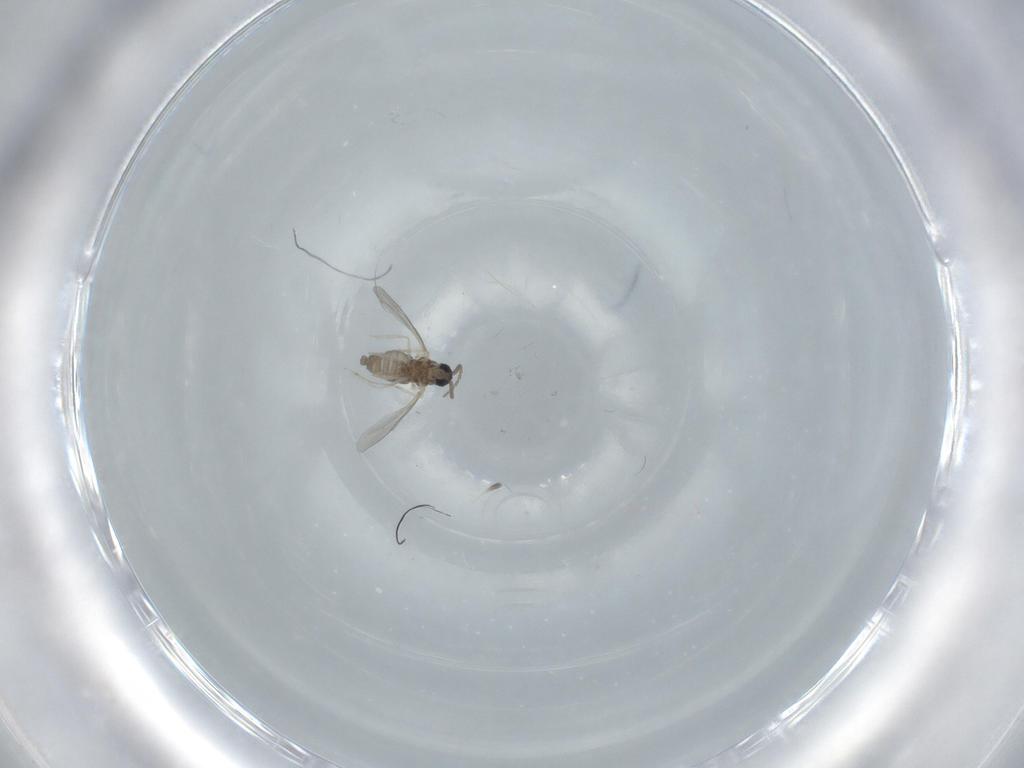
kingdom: Animalia
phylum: Arthropoda
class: Insecta
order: Diptera
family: Cecidomyiidae
